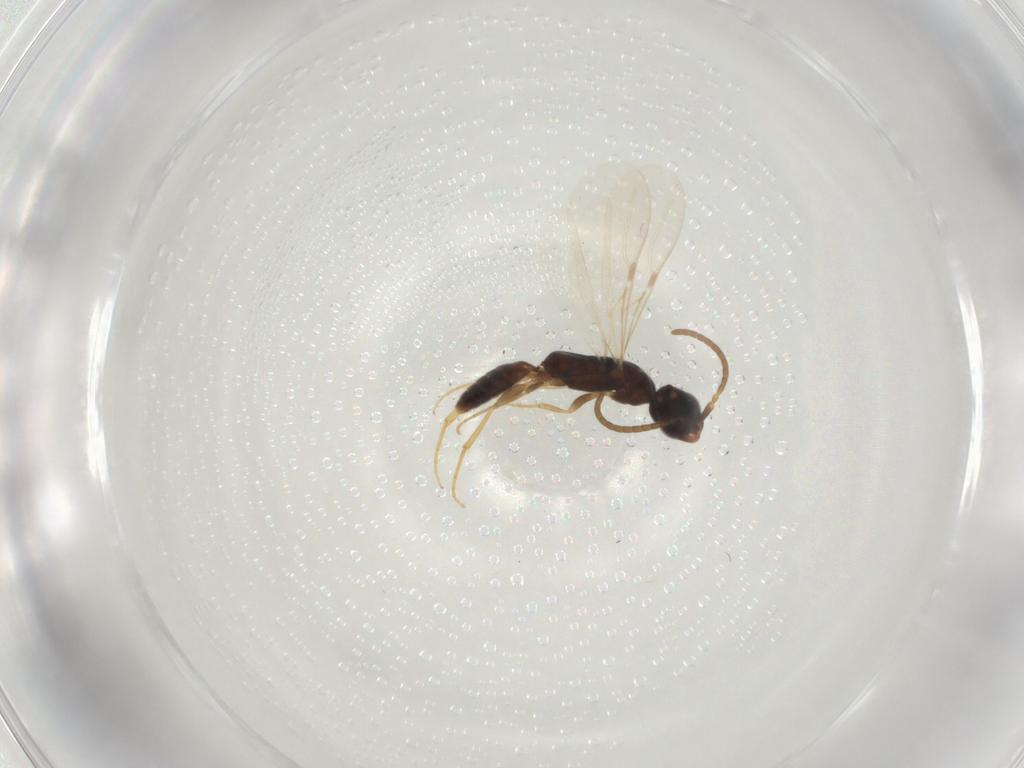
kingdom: Animalia
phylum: Arthropoda
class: Insecta
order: Hymenoptera
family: Bethylidae
